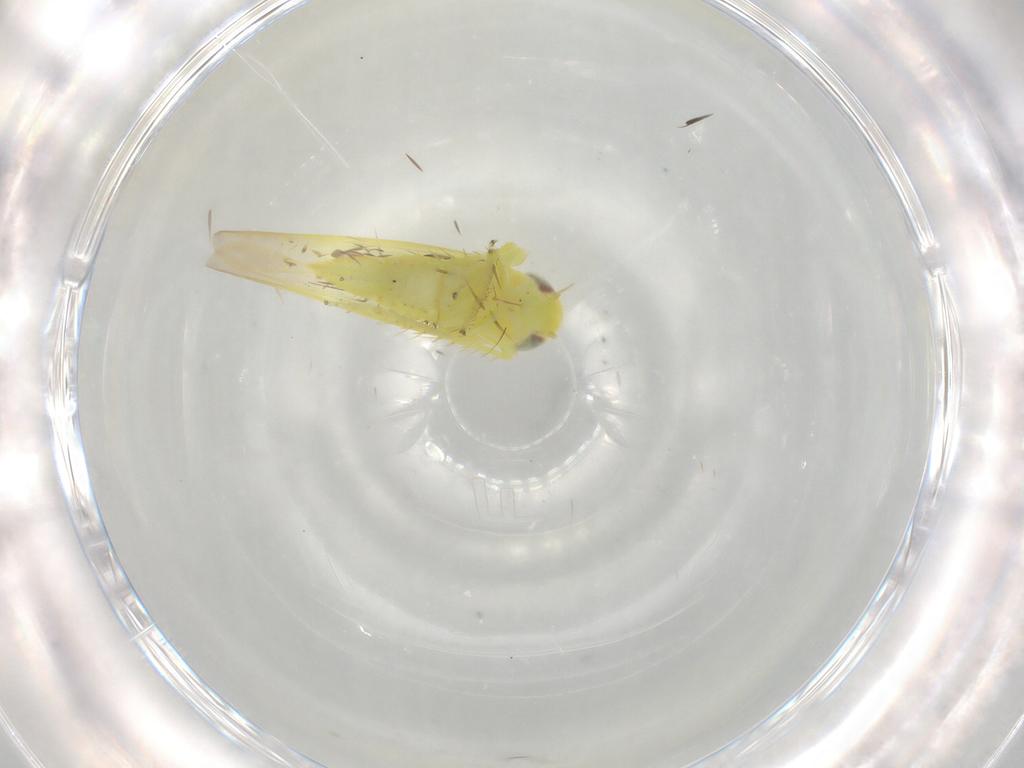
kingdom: Animalia
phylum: Arthropoda
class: Insecta
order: Hemiptera
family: Cicadellidae
